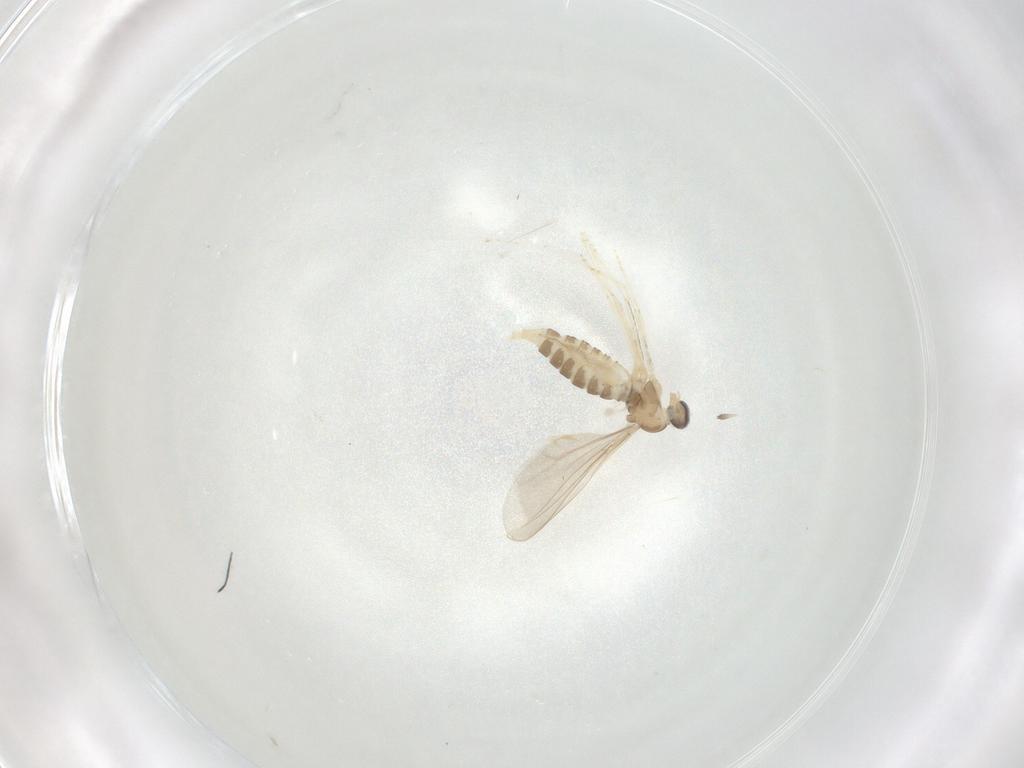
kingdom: Animalia
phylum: Arthropoda
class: Insecta
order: Diptera
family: Cecidomyiidae
